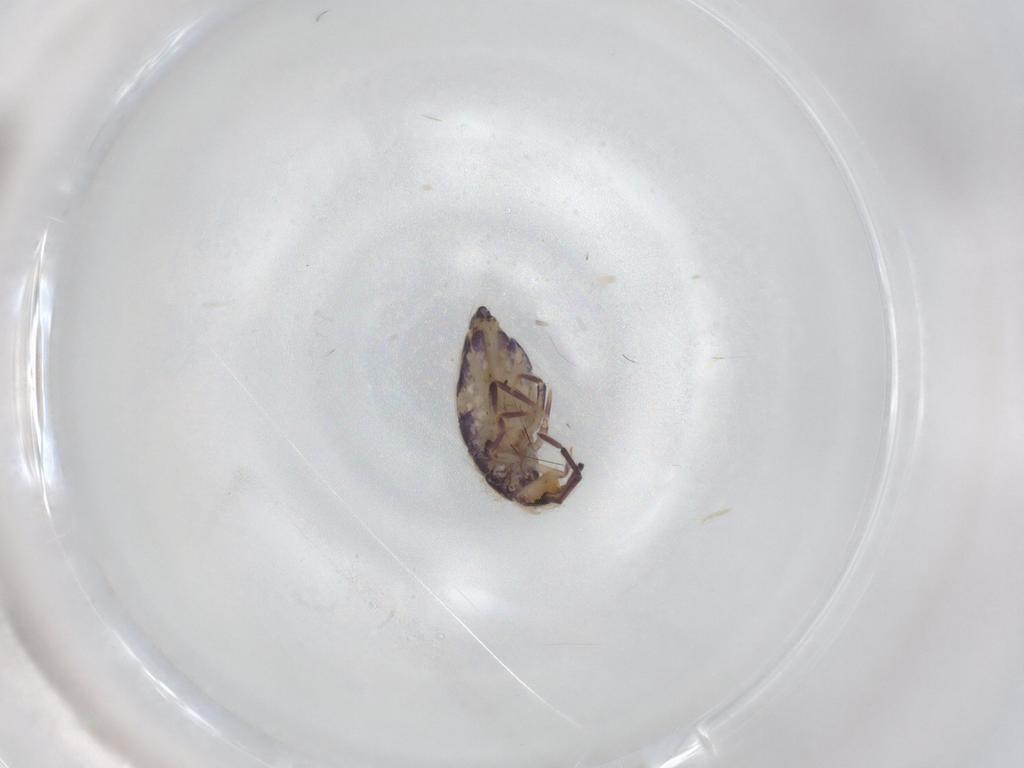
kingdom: Animalia
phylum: Arthropoda
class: Collembola
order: Entomobryomorpha
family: Entomobryidae
